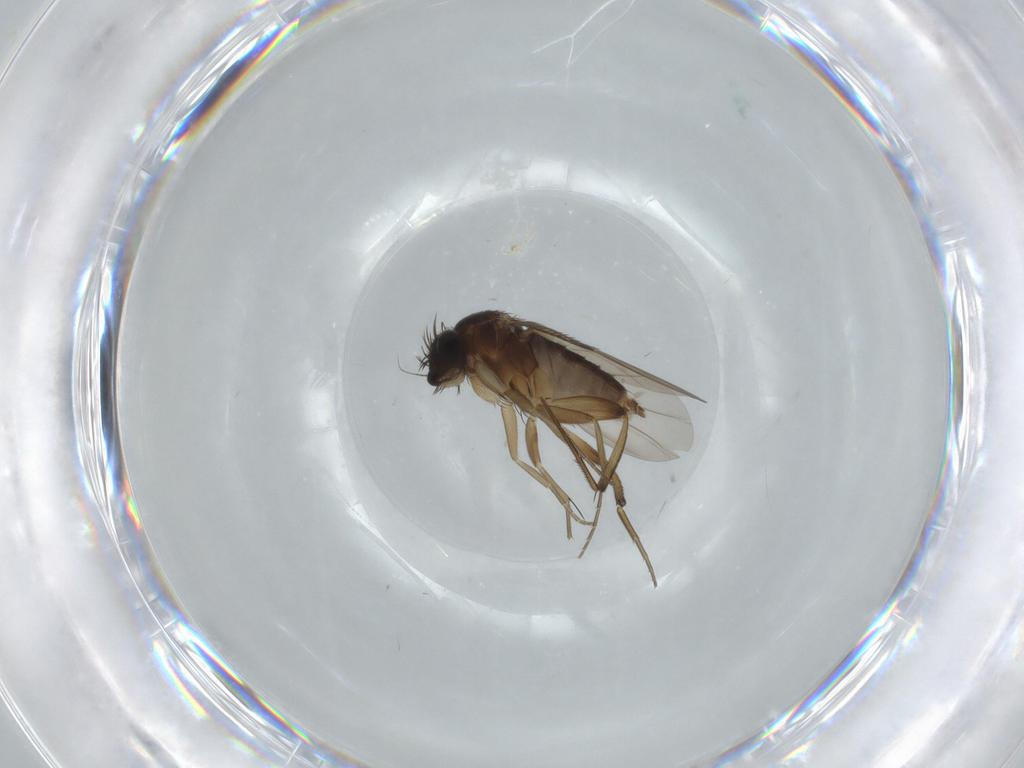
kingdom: Animalia
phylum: Arthropoda
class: Insecta
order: Diptera
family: Phoridae
